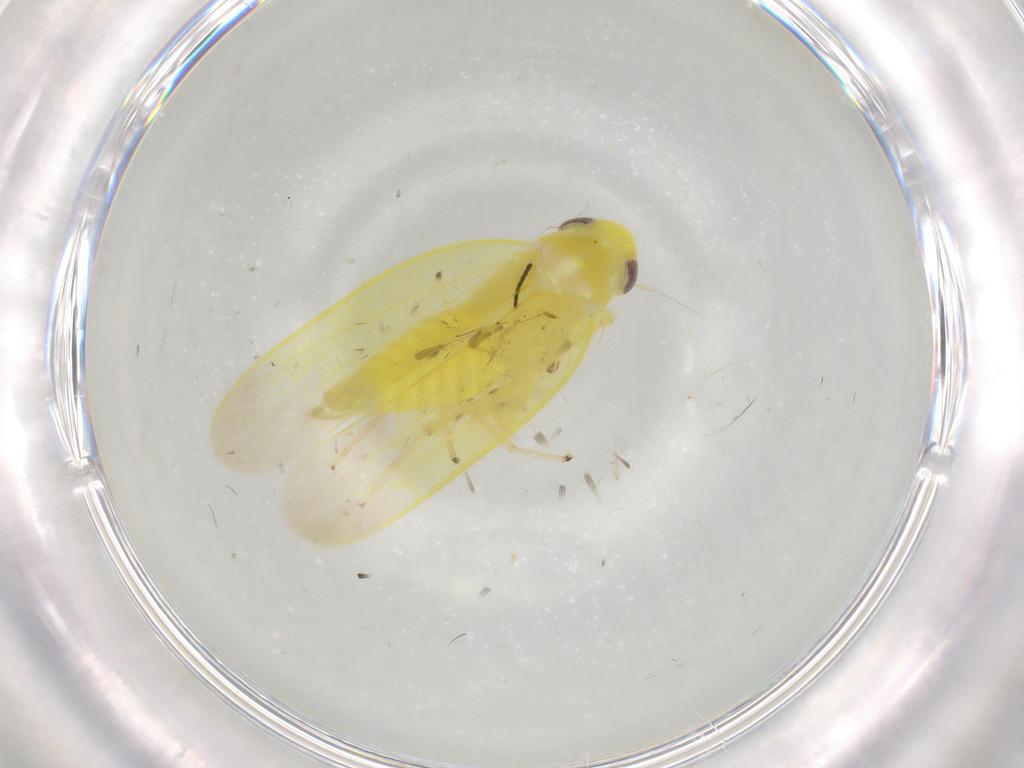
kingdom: Animalia
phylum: Arthropoda
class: Insecta
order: Hemiptera
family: Cicadellidae
